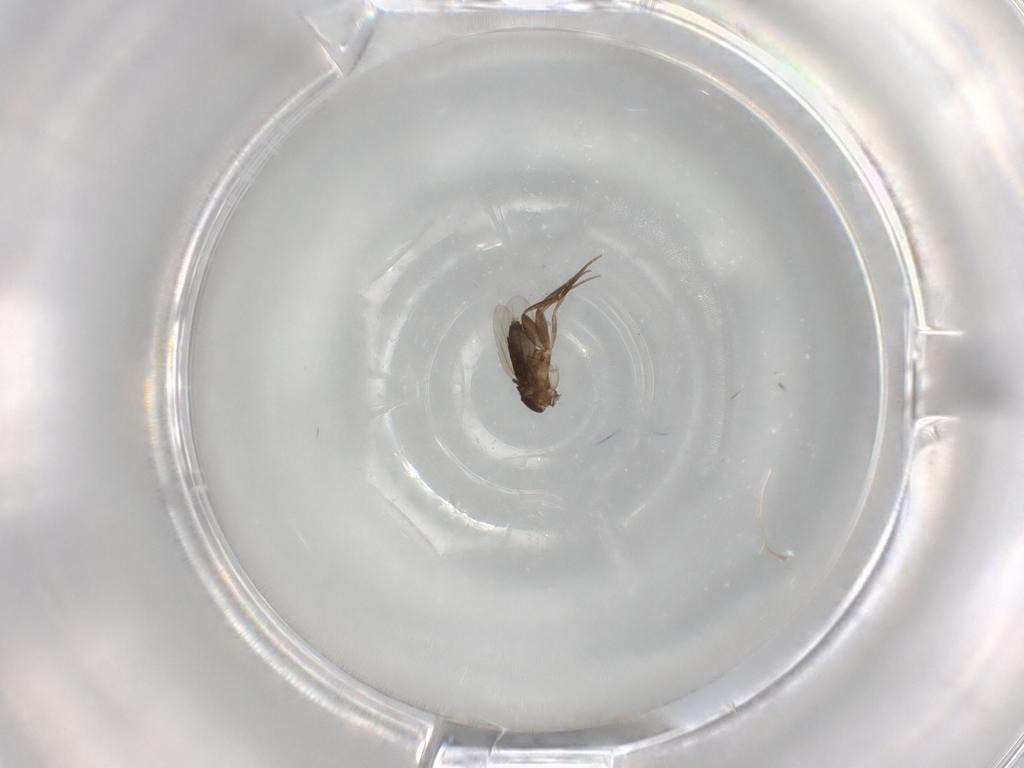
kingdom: Animalia
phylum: Arthropoda
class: Insecta
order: Diptera
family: Phoridae
